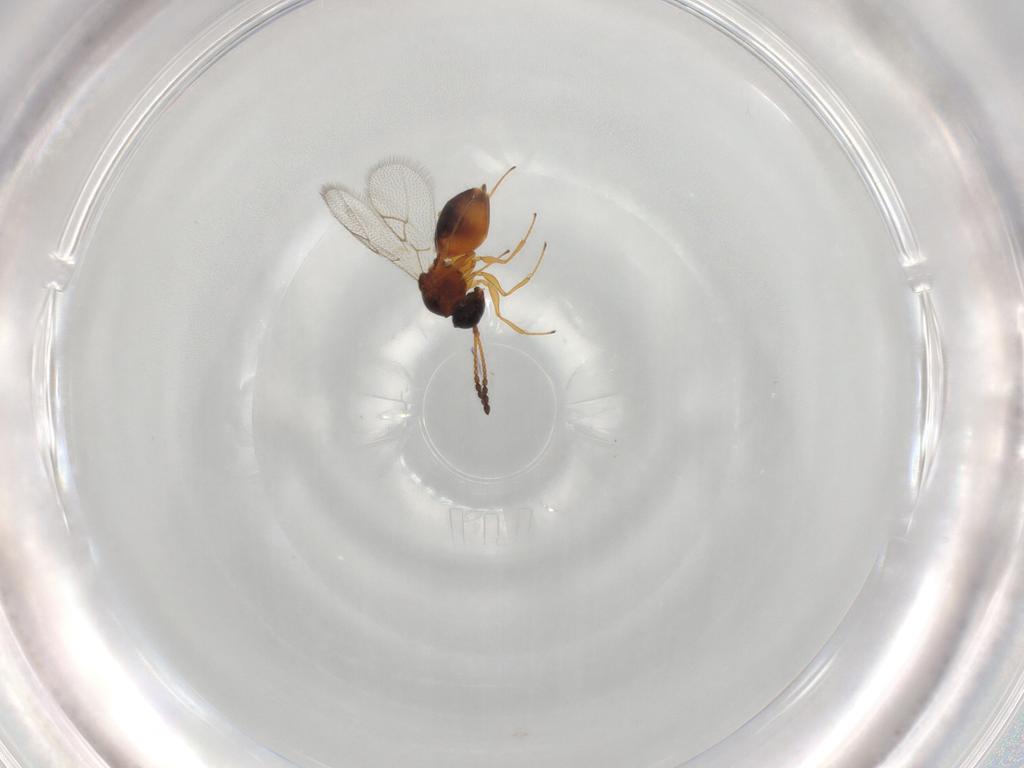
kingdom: Animalia
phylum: Arthropoda
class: Insecta
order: Hymenoptera
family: Figitidae
